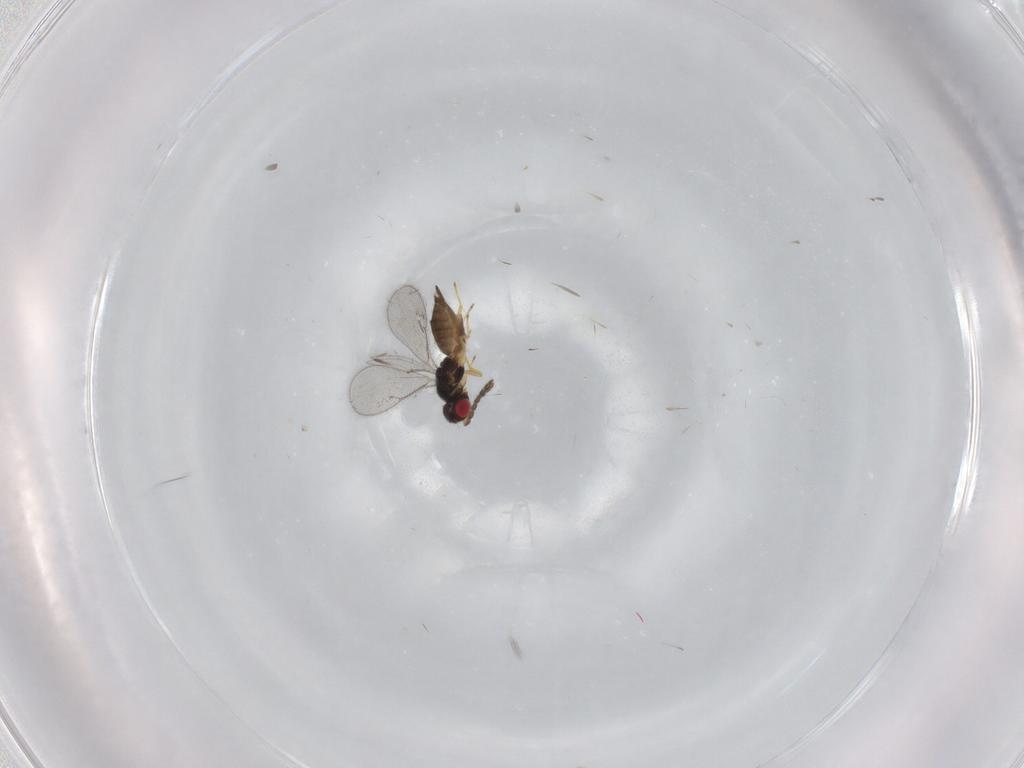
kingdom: Animalia
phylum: Arthropoda
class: Insecta
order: Hymenoptera
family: Eulophidae
